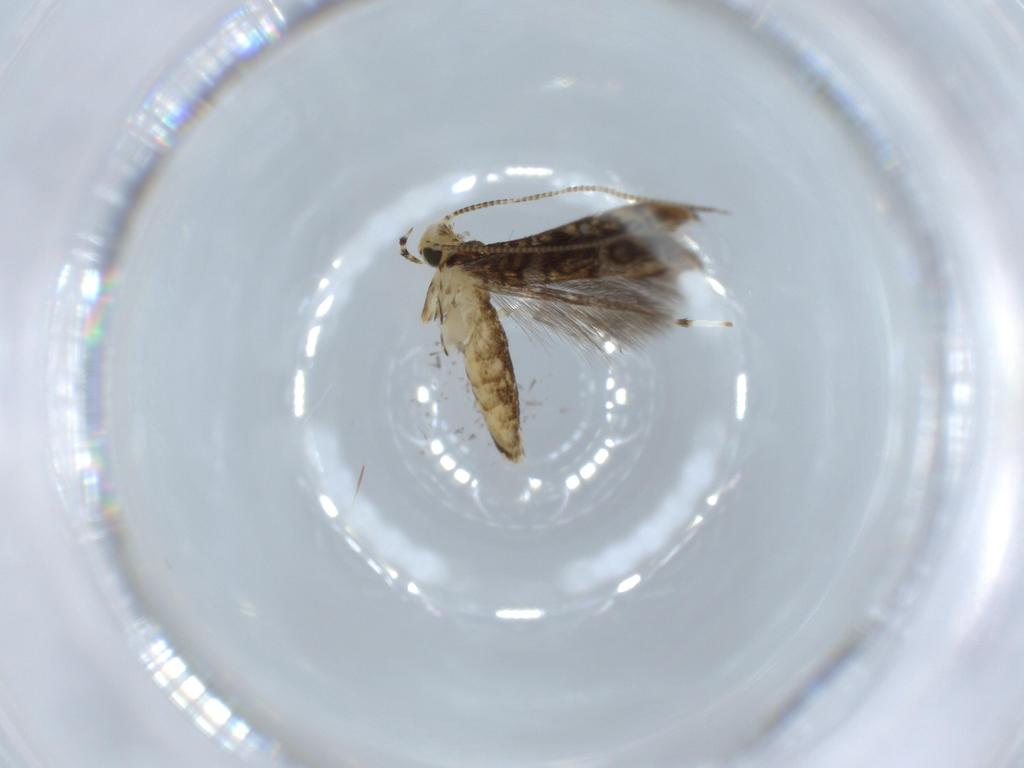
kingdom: Animalia
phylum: Arthropoda
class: Insecta
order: Lepidoptera
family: Gracillariidae
